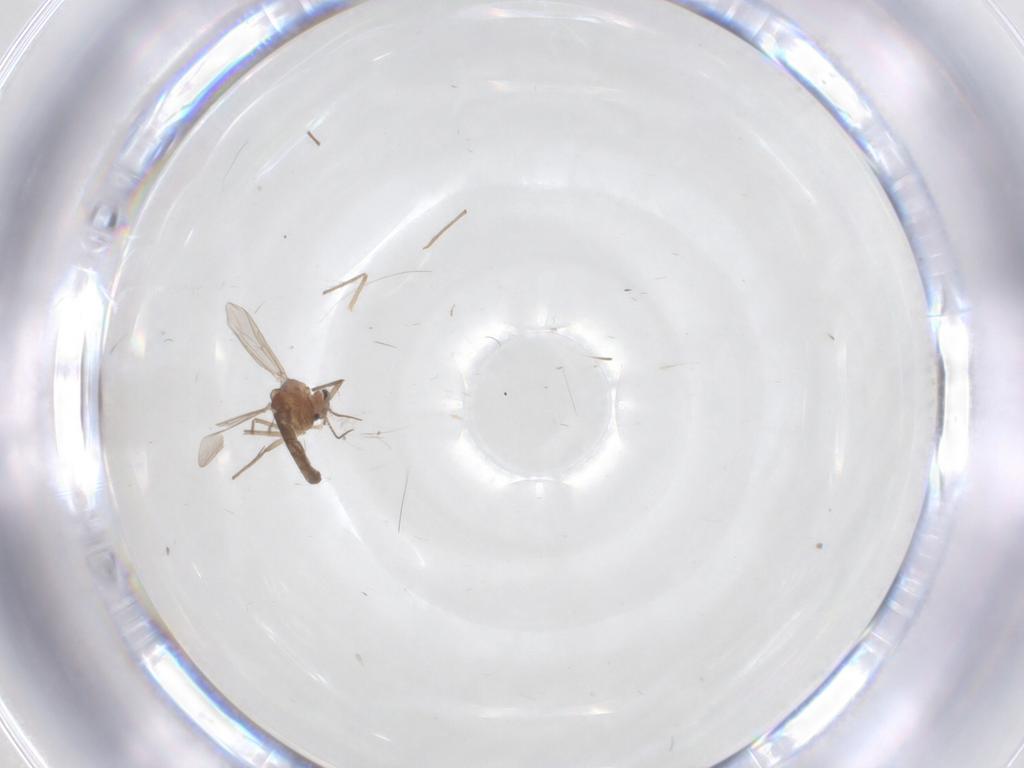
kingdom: Animalia
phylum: Arthropoda
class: Insecta
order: Diptera
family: Chironomidae
